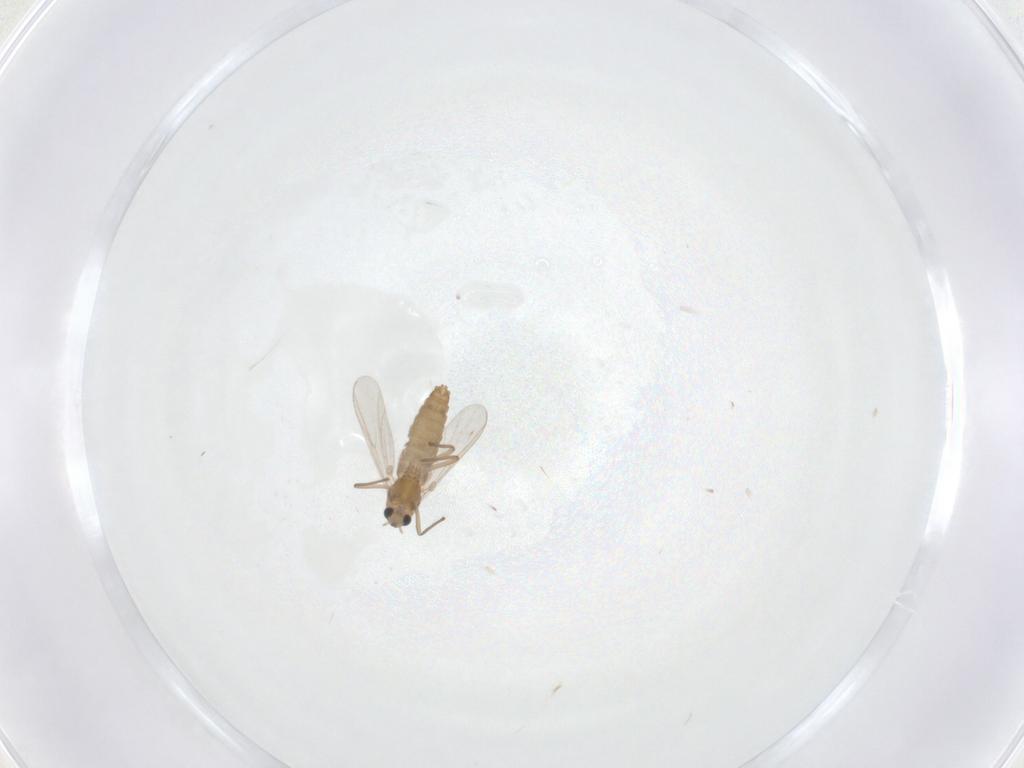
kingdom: Animalia
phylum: Arthropoda
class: Insecta
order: Diptera
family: Chironomidae
